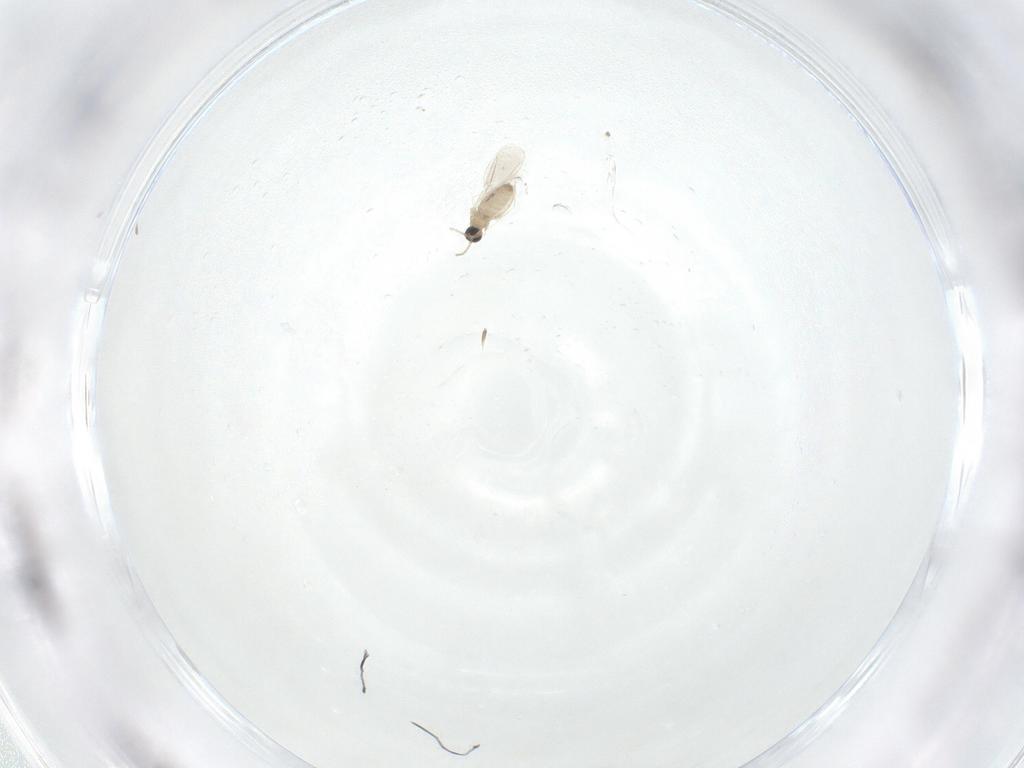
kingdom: Animalia
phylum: Arthropoda
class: Insecta
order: Diptera
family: Cecidomyiidae
